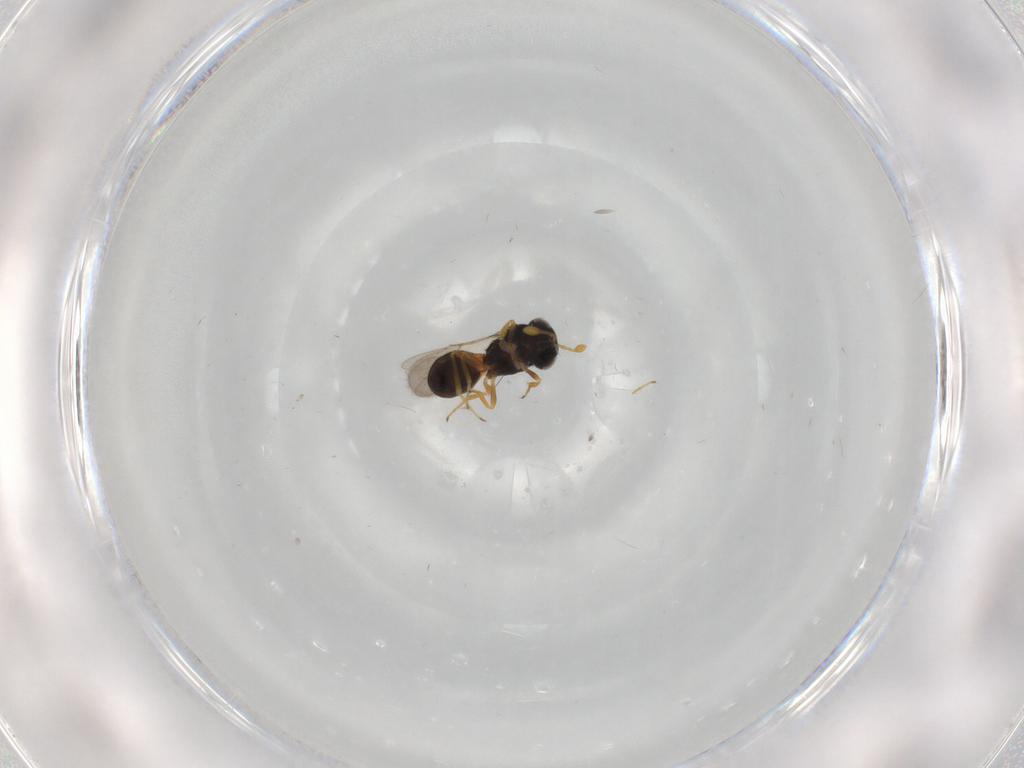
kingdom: Animalia
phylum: Arthropoda
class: Insecta
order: Hymenoptera
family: Scelionidae
